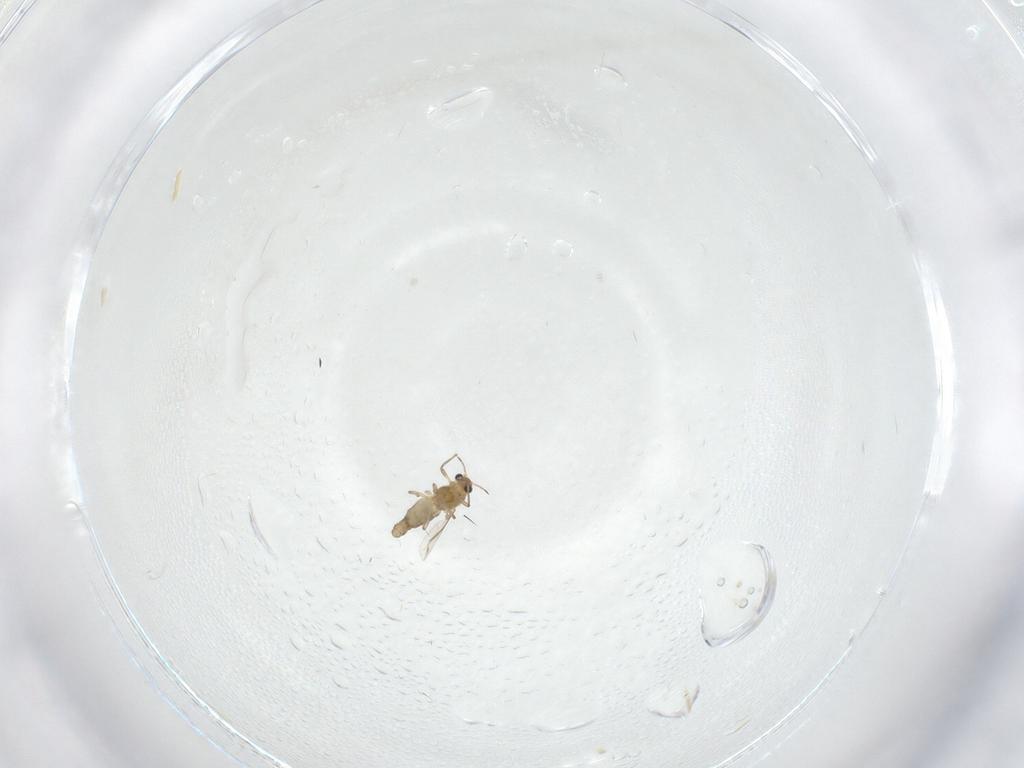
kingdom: Animalia
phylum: Arthropoda
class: Insecta
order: Diptera
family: Chironomidae
